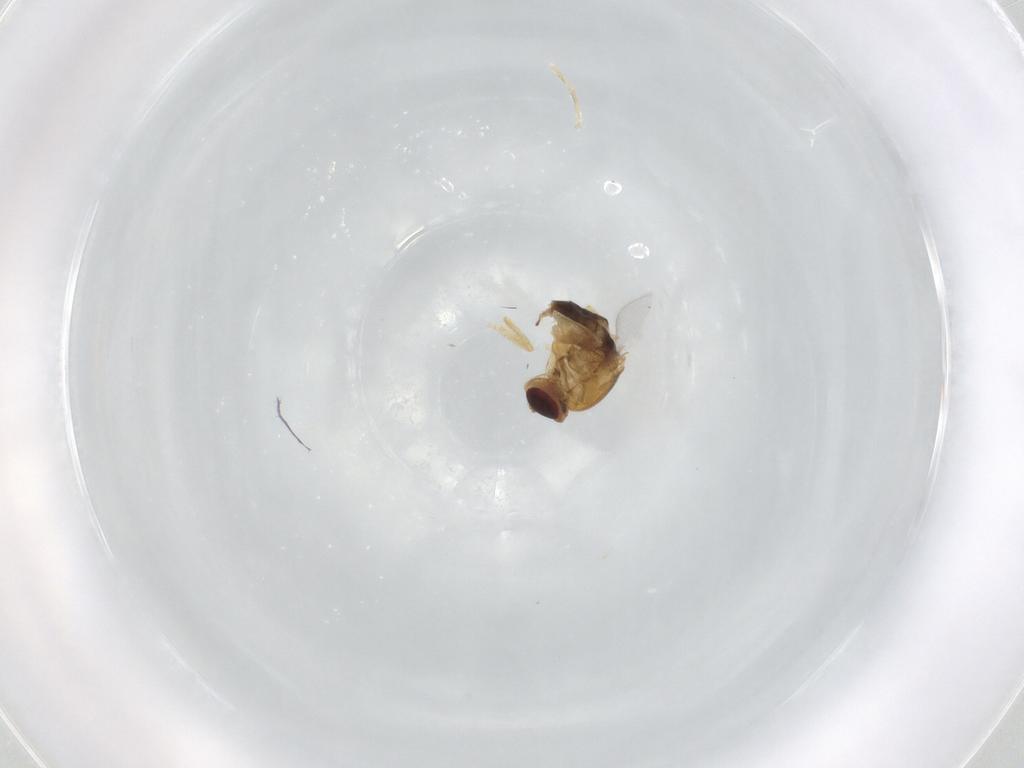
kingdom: Animalia
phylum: Arthropoda
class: Insecta
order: Diptera
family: Chloropidae
